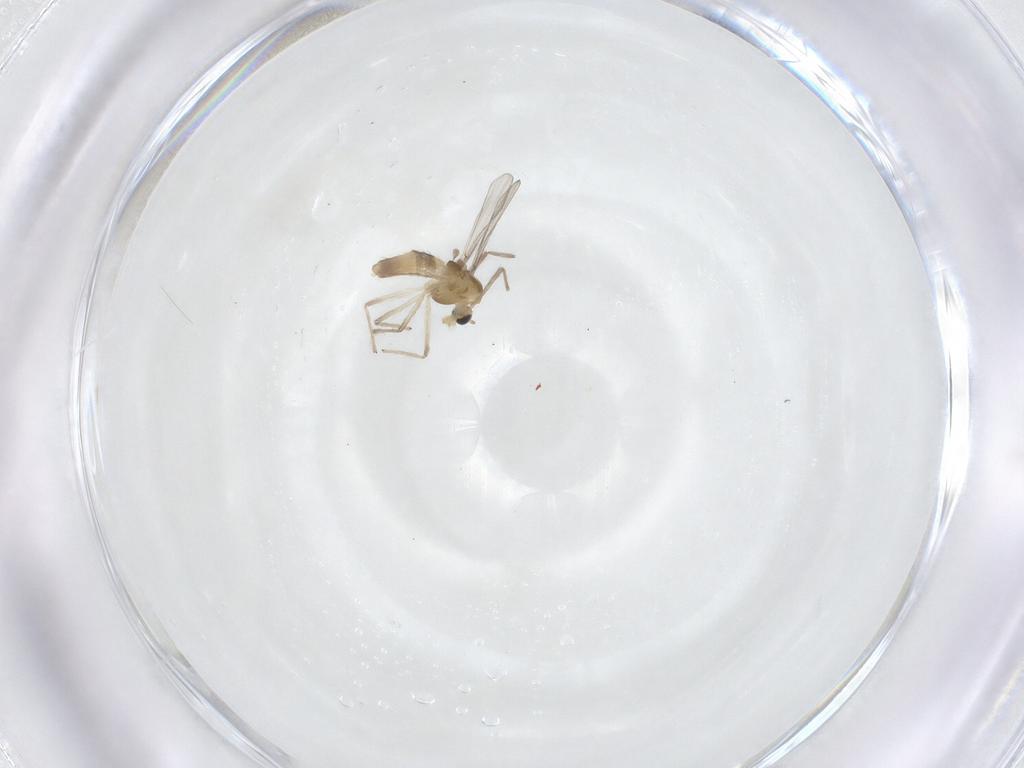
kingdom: Animalia
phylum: Arthropoda
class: Insecta
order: Diptera
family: Chironomidae
